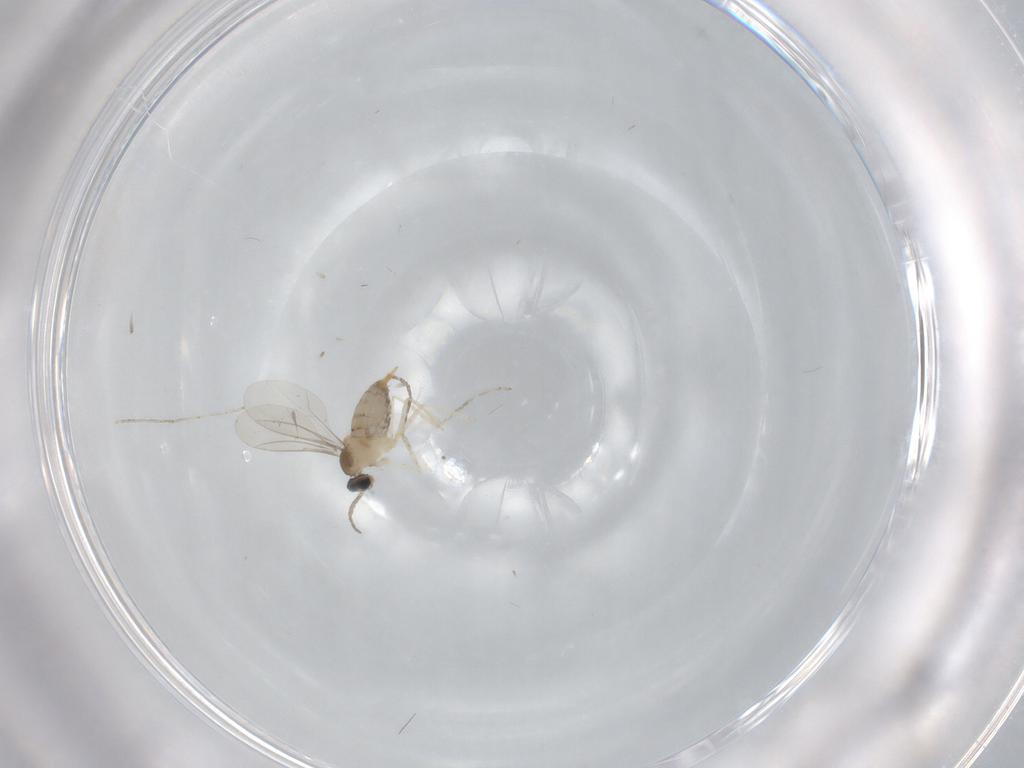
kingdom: Animalia
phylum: Arthropoda
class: Insecta
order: Diptera
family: Cecidomyiidae
